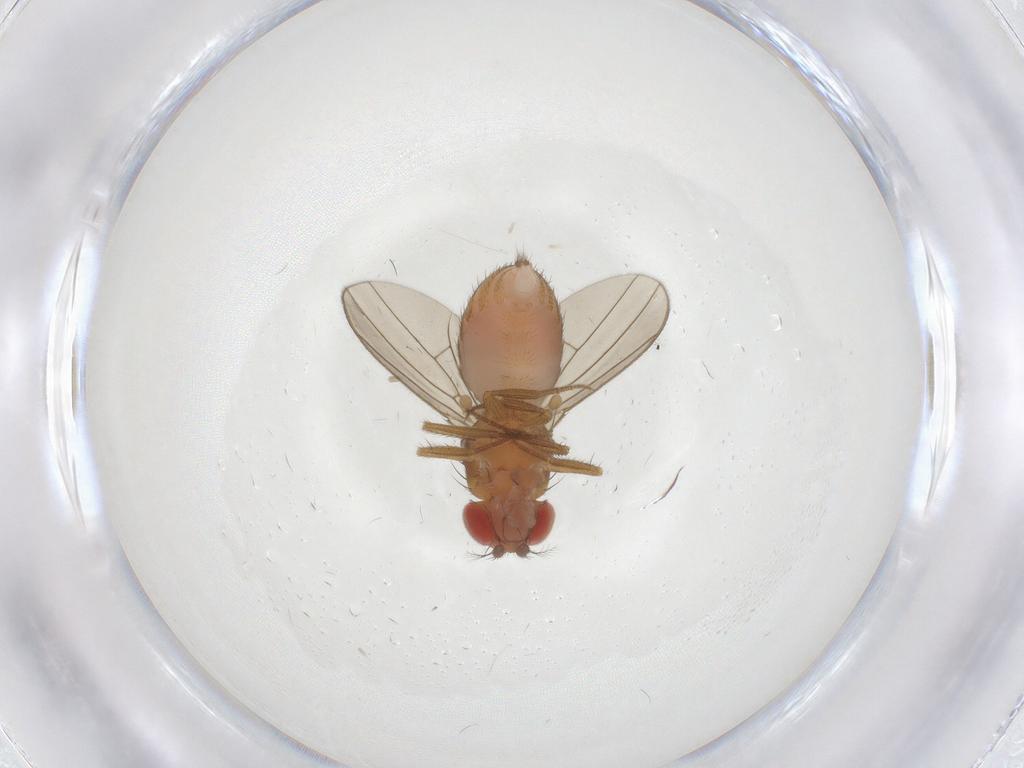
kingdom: Animalia
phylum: Arthropoda
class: Insecta
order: Diptera
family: Drosophilidae
